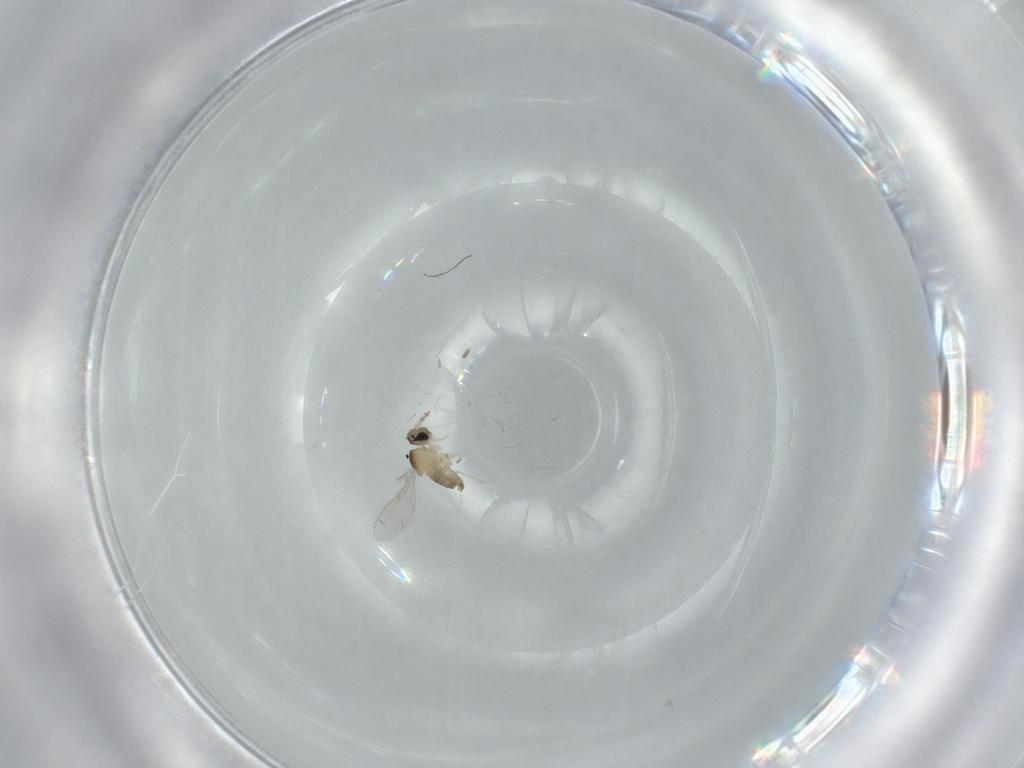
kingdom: Animalia
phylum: Arthropoda
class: Insecta
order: Diptera
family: Cecidomyiidae
